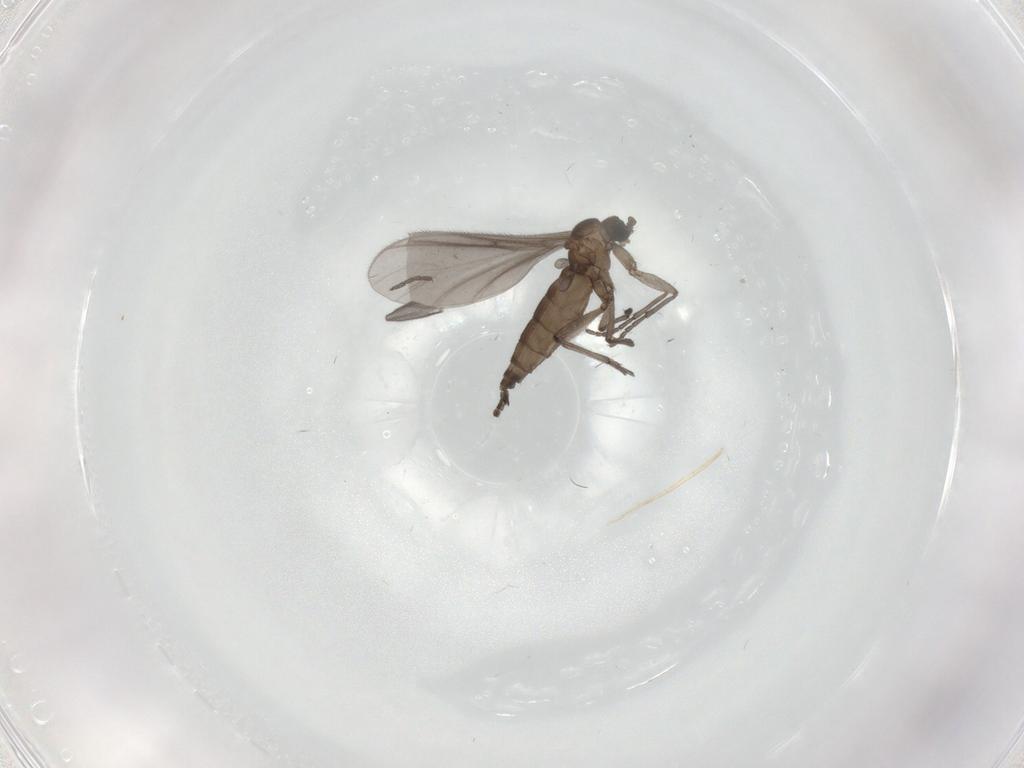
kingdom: Animalia
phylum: Arthropoda
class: Insecta
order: Diptera
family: Sciaridae
